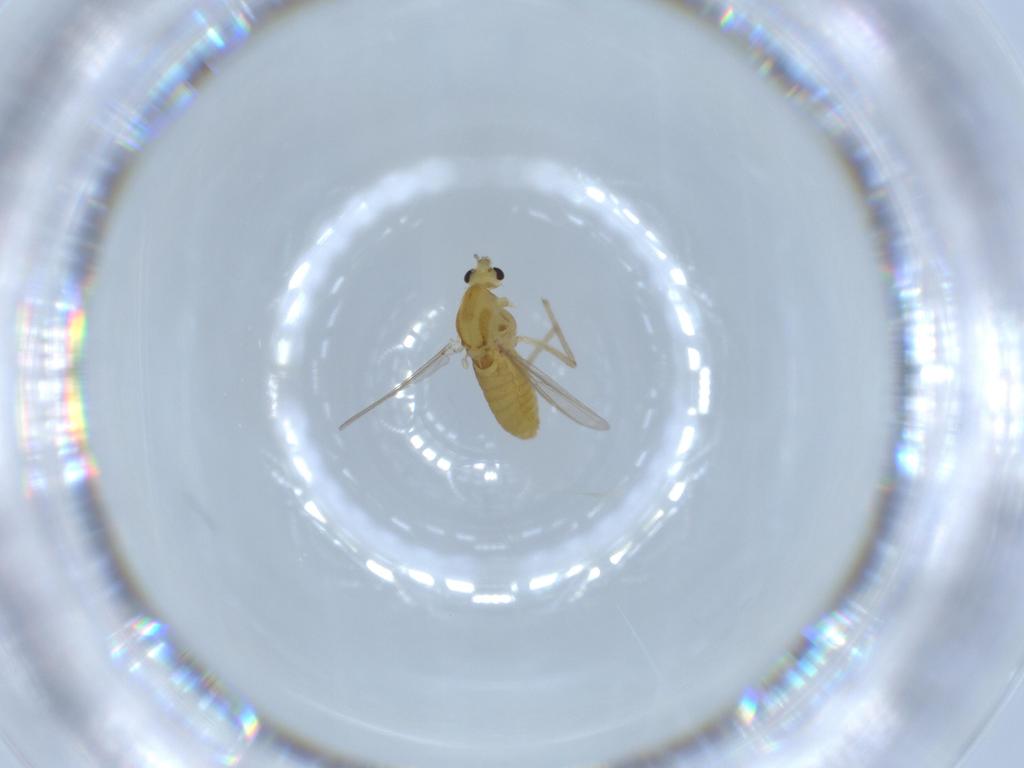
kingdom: Animalia
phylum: Arthropoda
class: Insecta
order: Diptera
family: Chironomidae
